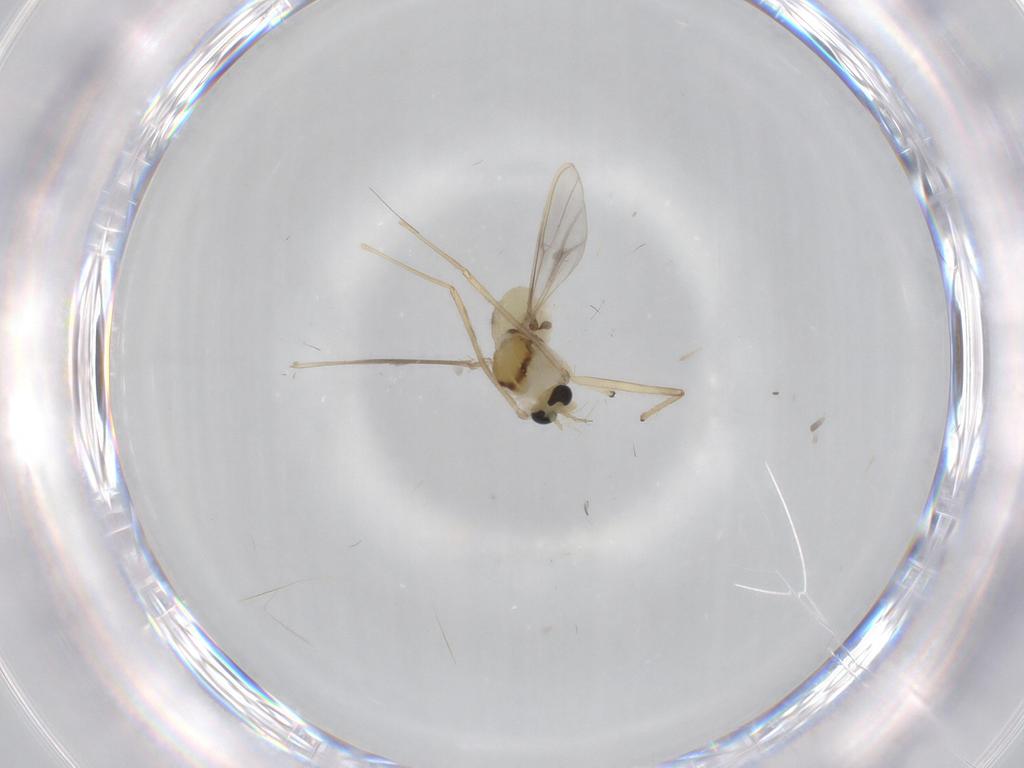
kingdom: Animalia
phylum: Arthropoda
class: Insecta
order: Diptera
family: Chironomidae
